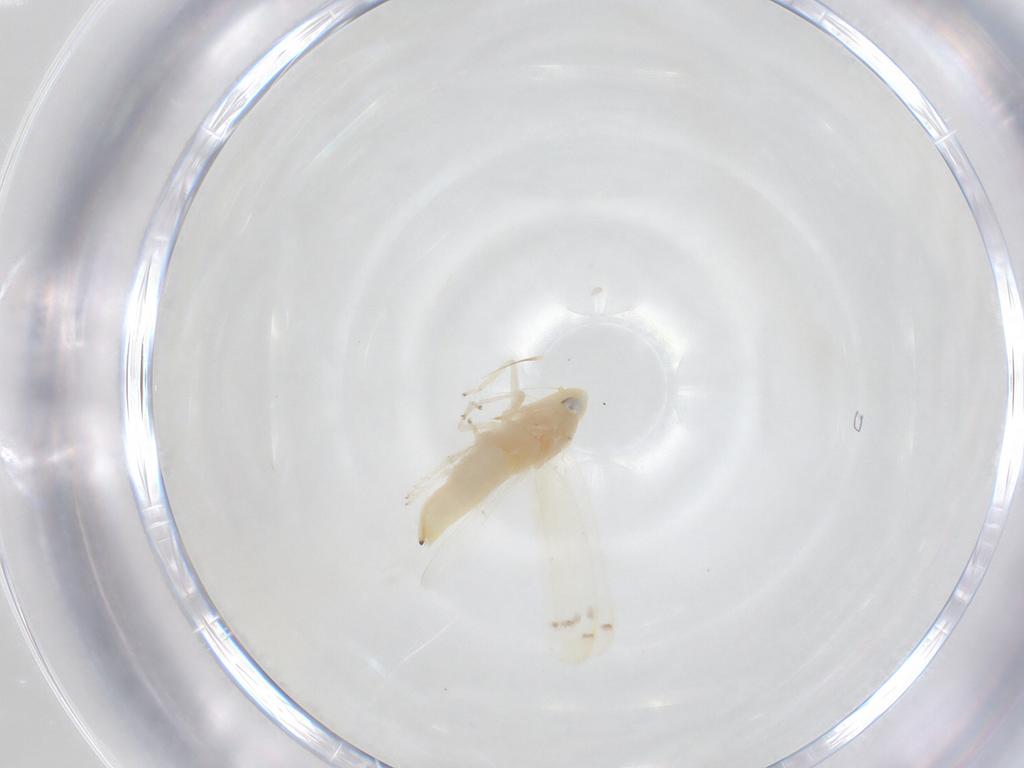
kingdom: Animalia
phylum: Arthropoda
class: Insecta
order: Hemiptera
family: Cicadellidae
